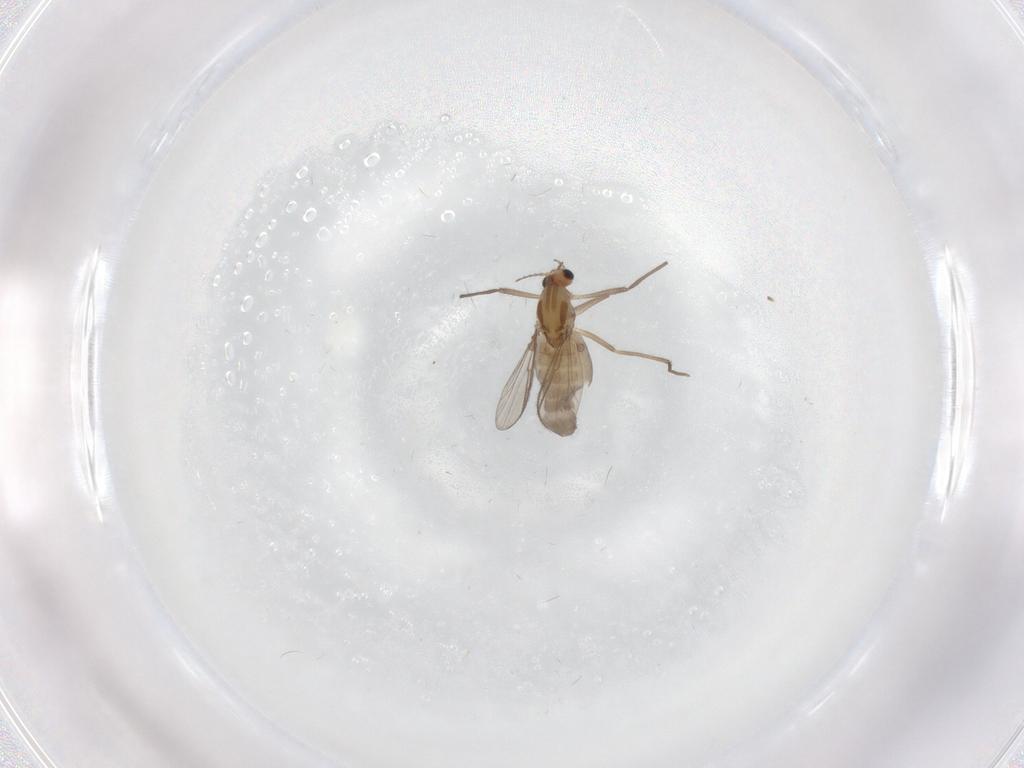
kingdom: Animalia
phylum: Arthropoda
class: Insecta
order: Diptera
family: Chironomidae
